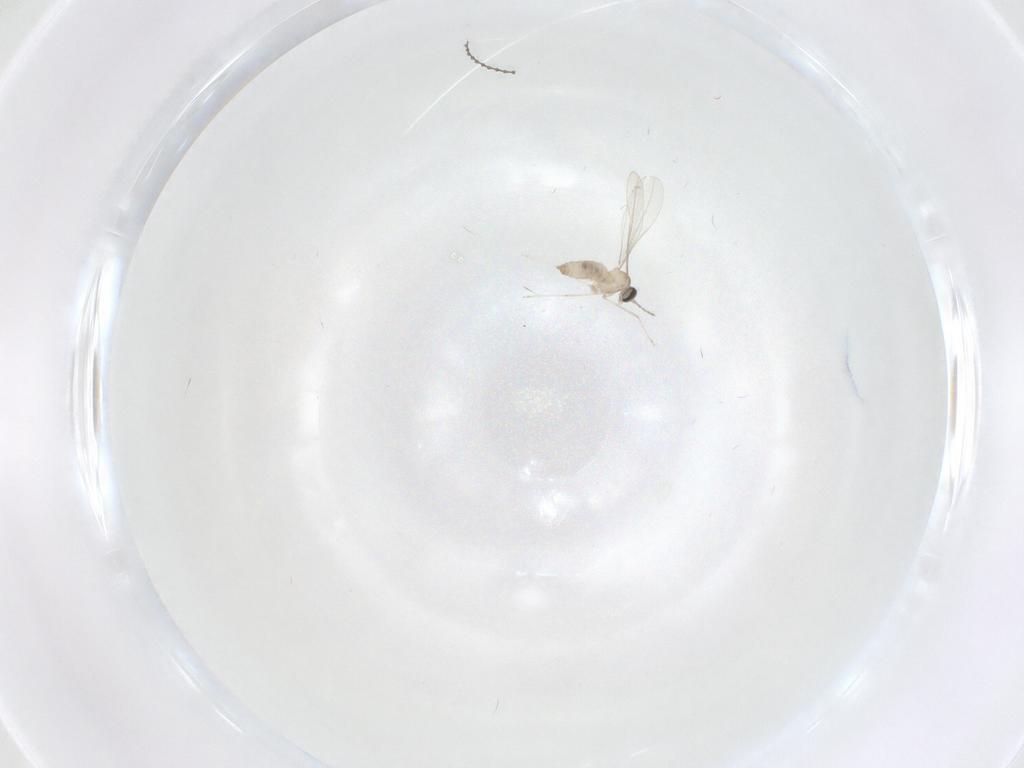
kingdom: Animalia
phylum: Arthropoda
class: Insecta
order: Diptera
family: Cecidomyiidae
